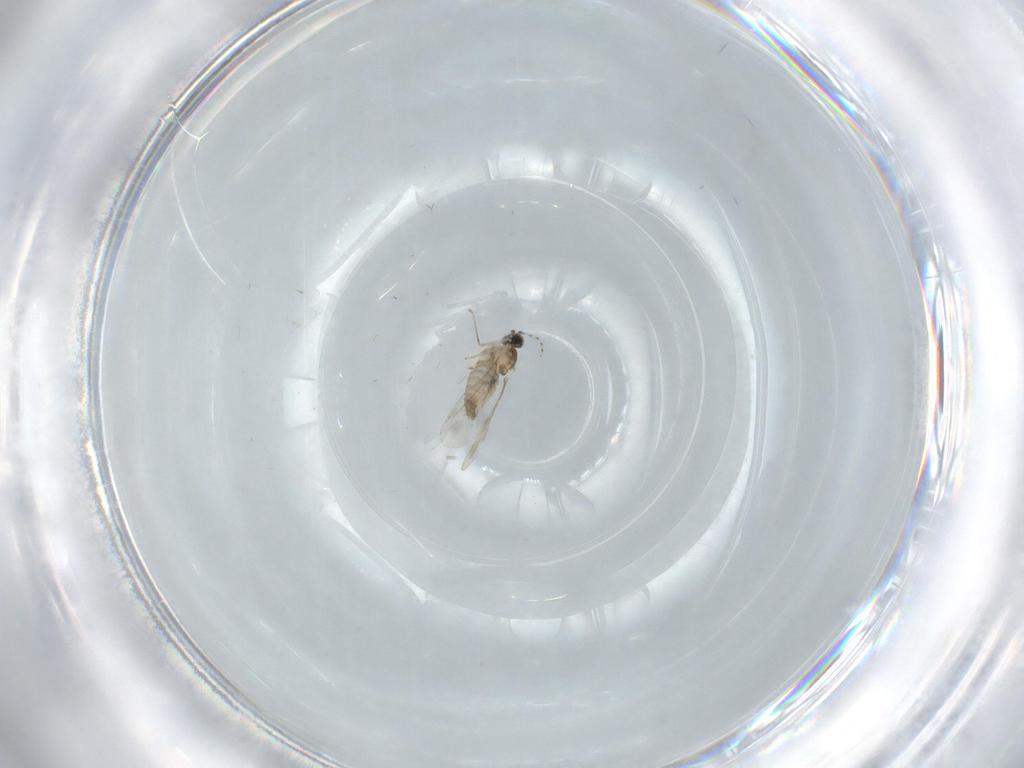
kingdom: Animalia
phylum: Arthropoda
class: Insecta
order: Diptera
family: Cecidomyiidae
